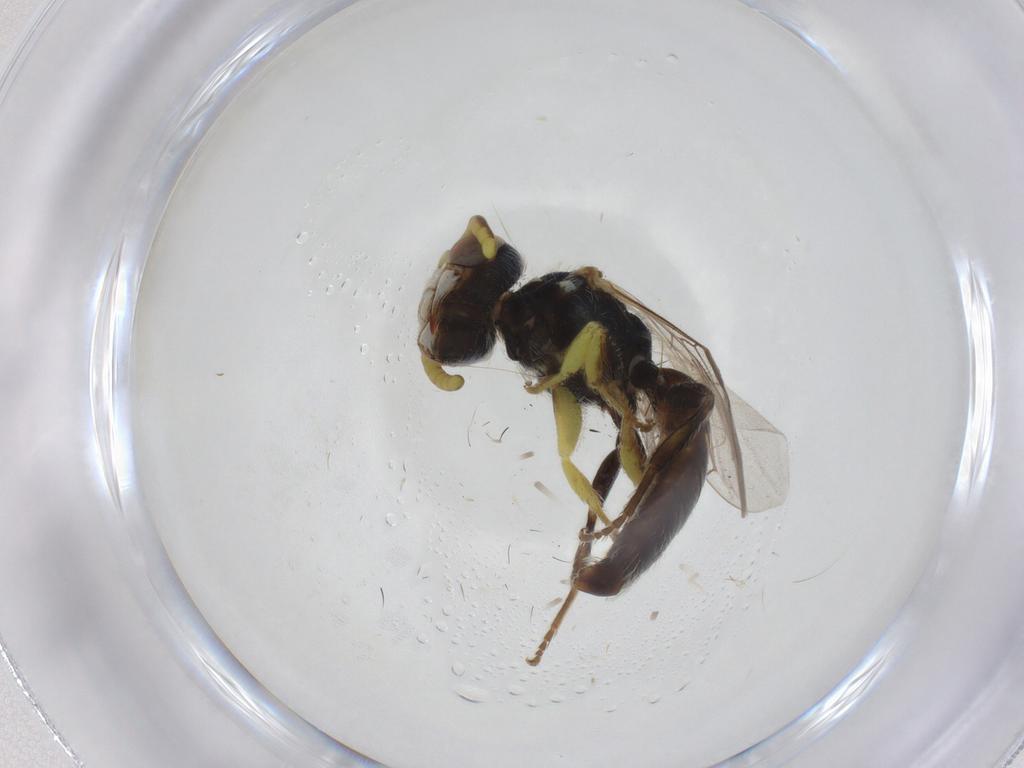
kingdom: Animalia
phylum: Arthropoda
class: Insecta
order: Hymenoptera
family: Andrenidae
